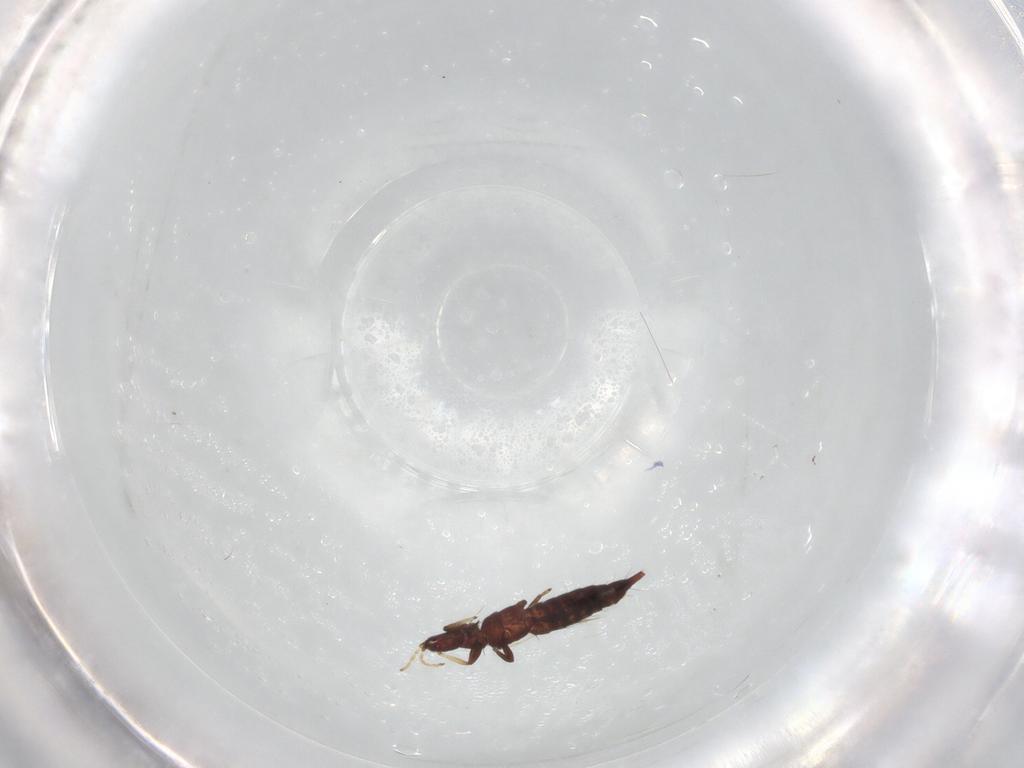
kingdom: Animalia
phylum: Arthropoda
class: Insecta
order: Thysanoptera
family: Phlaeothripidae
